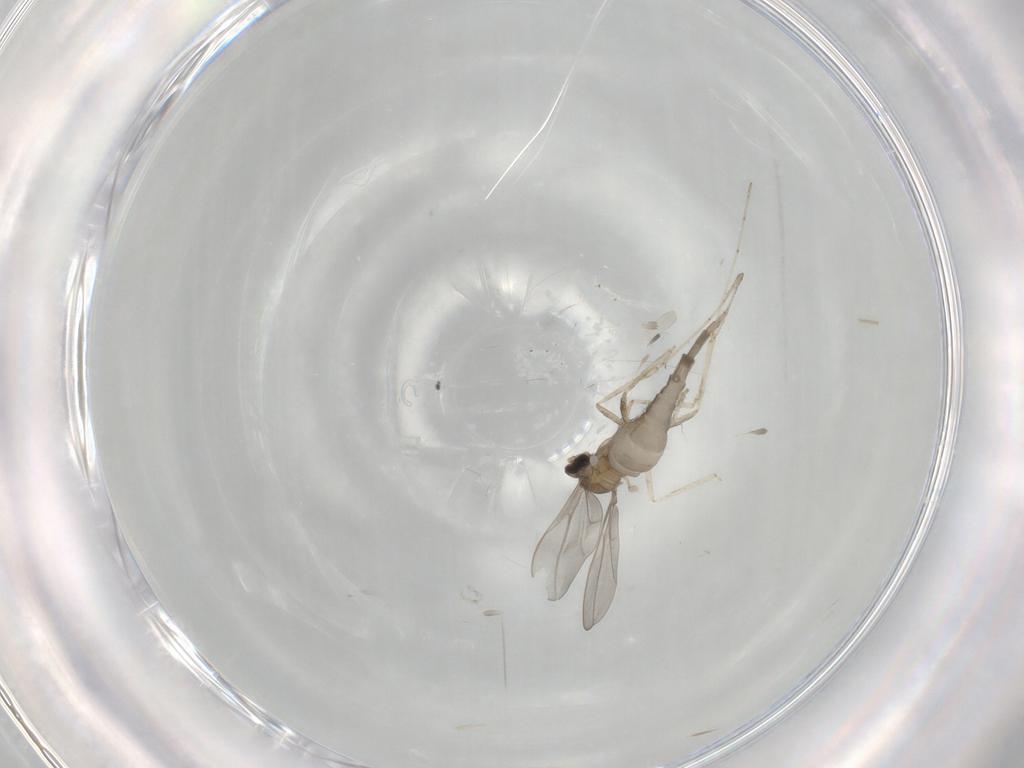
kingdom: Animalia
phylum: Arthropoda
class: Insecta
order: Diptera
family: Cecidomyiidae
